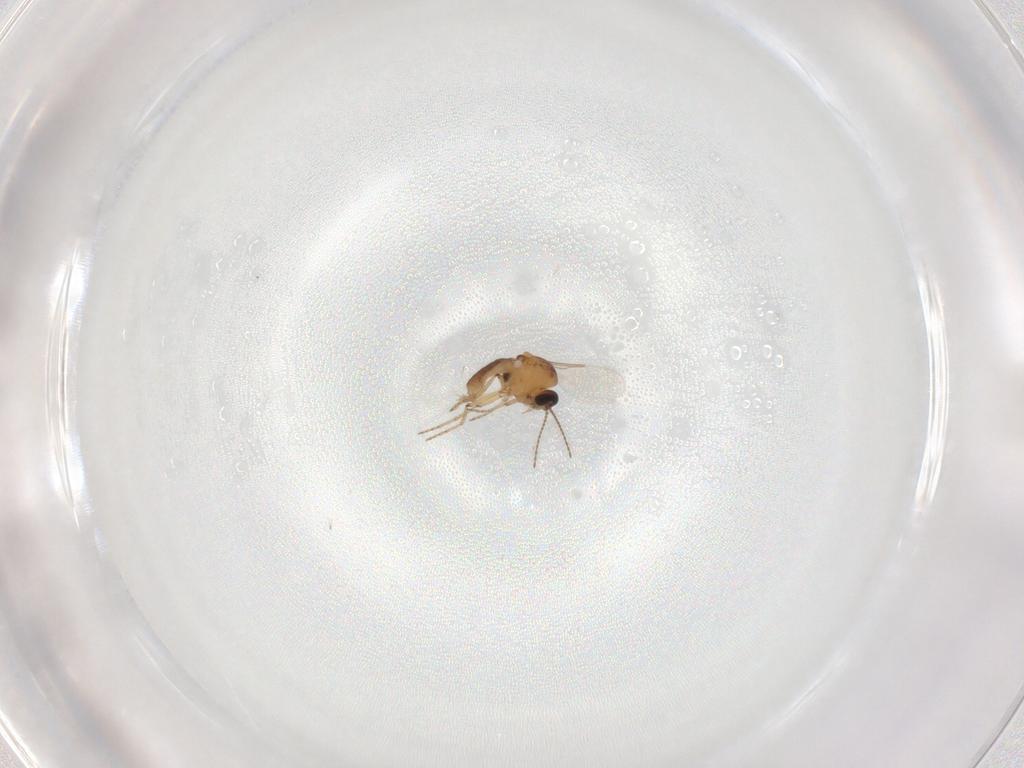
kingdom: Animalia
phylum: Arthropoda
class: Insecta
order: Diptera
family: Ceratopogonidae
